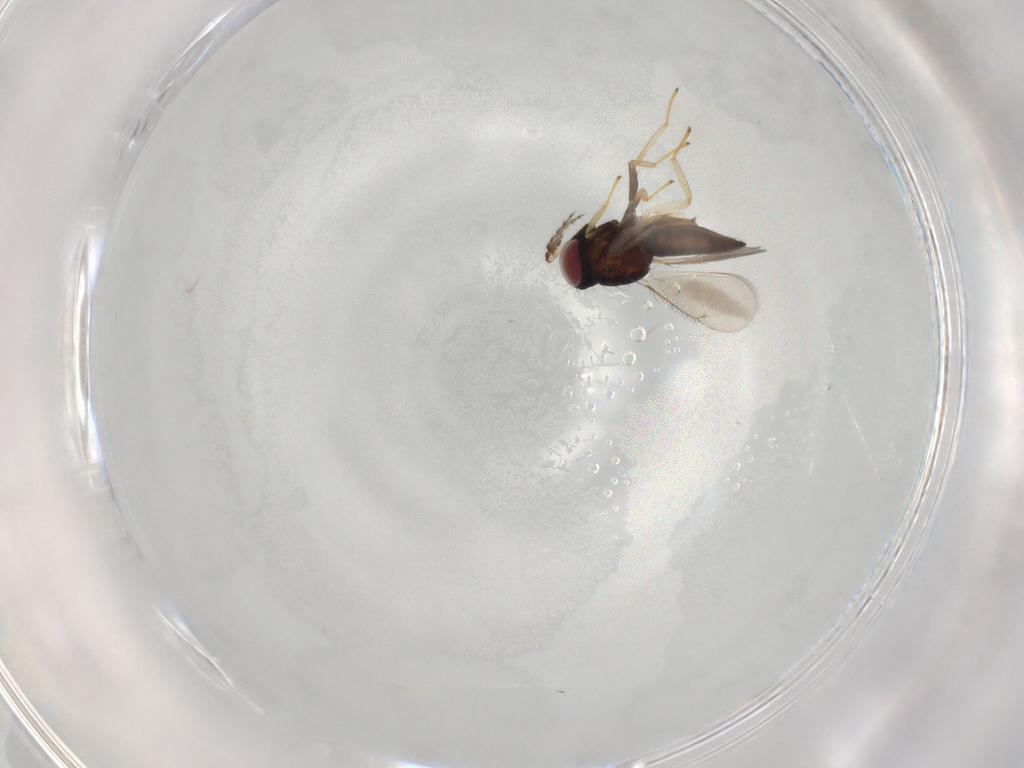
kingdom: Animalia
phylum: Arthropoda
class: Insecta
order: Hymenoptera
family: Eulophidae
